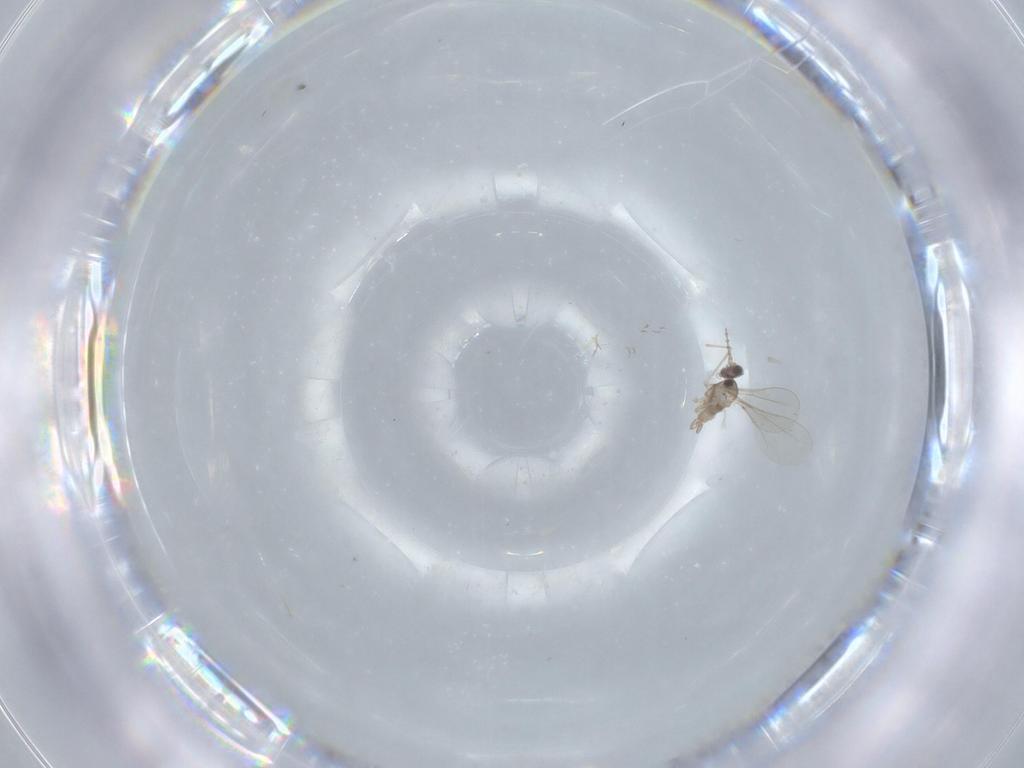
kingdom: Animalia
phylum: Arthropoda
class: Insecta
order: Diptera
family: Cecidomyiidae
